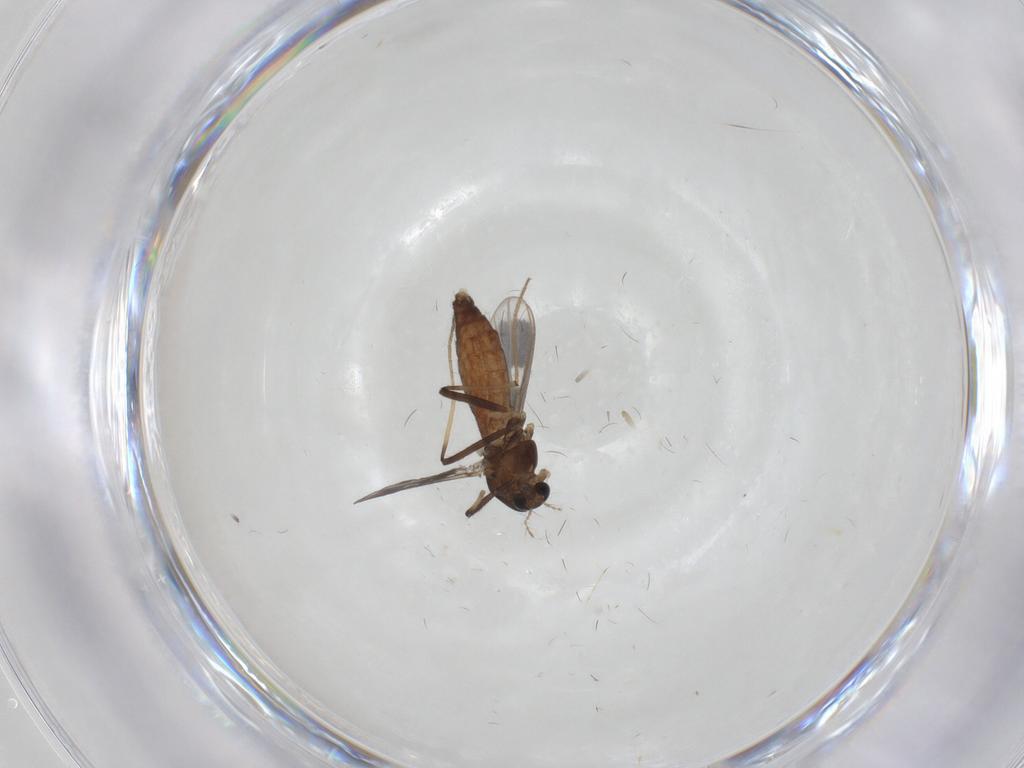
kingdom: Animalia
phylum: Arthropoda
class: Insecta
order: Diptera
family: Chironomidae
